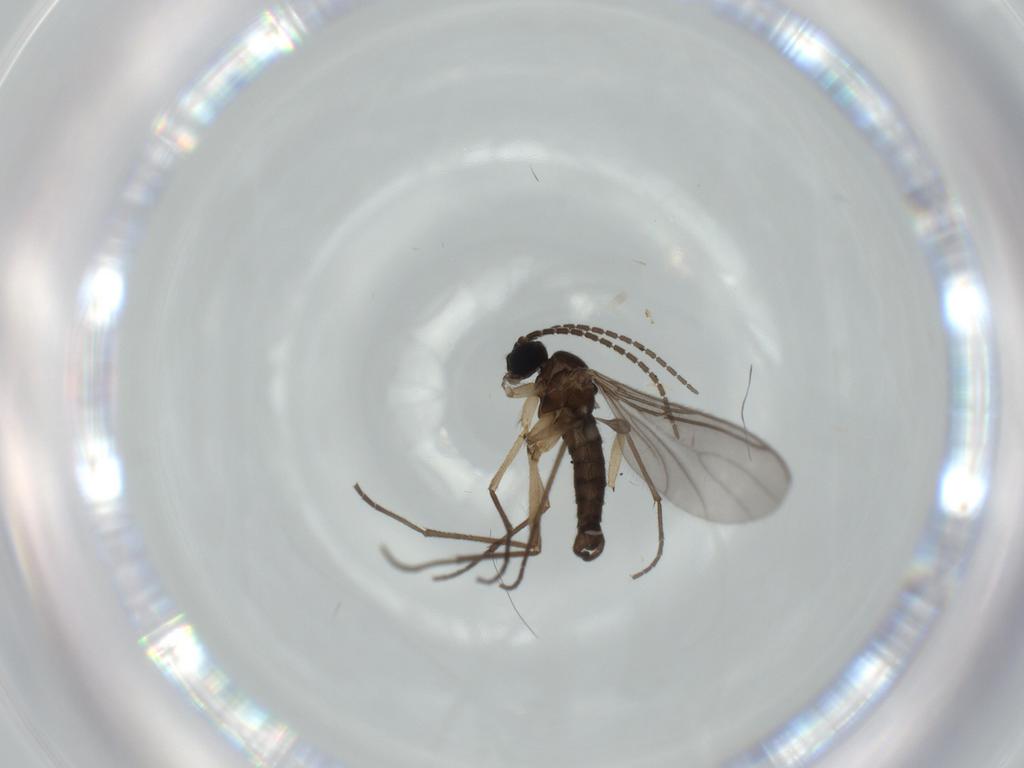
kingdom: Animalia
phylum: Arthropoda
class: Insecta
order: Diptera
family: Sciaridae
